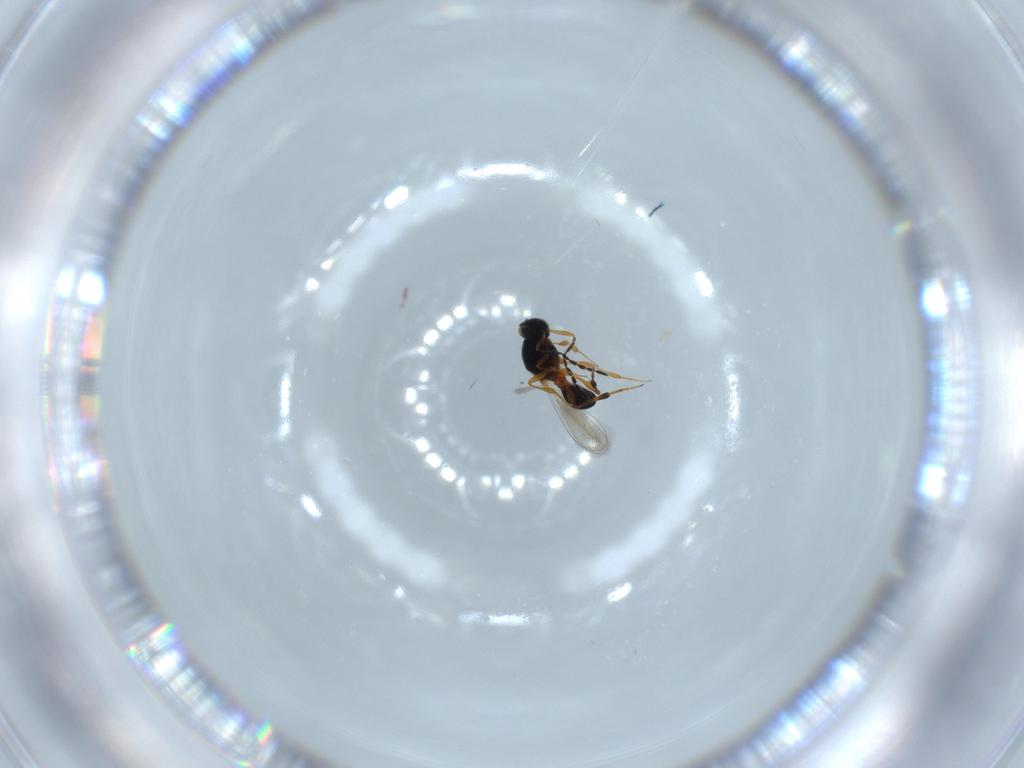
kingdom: Animalia
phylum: Arthropoda
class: Insecta
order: Hymenoptera
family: Platygastridae
